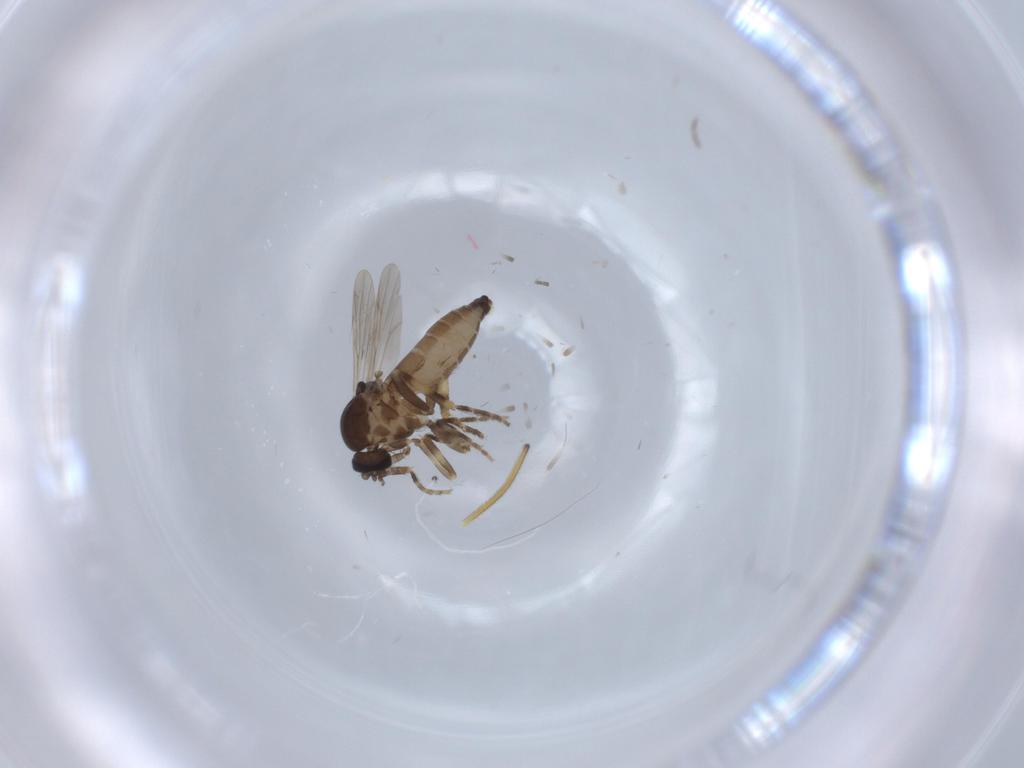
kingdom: Animalia
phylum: Arthropoda
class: Insecta
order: Diptera
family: Ceratopogonidae
